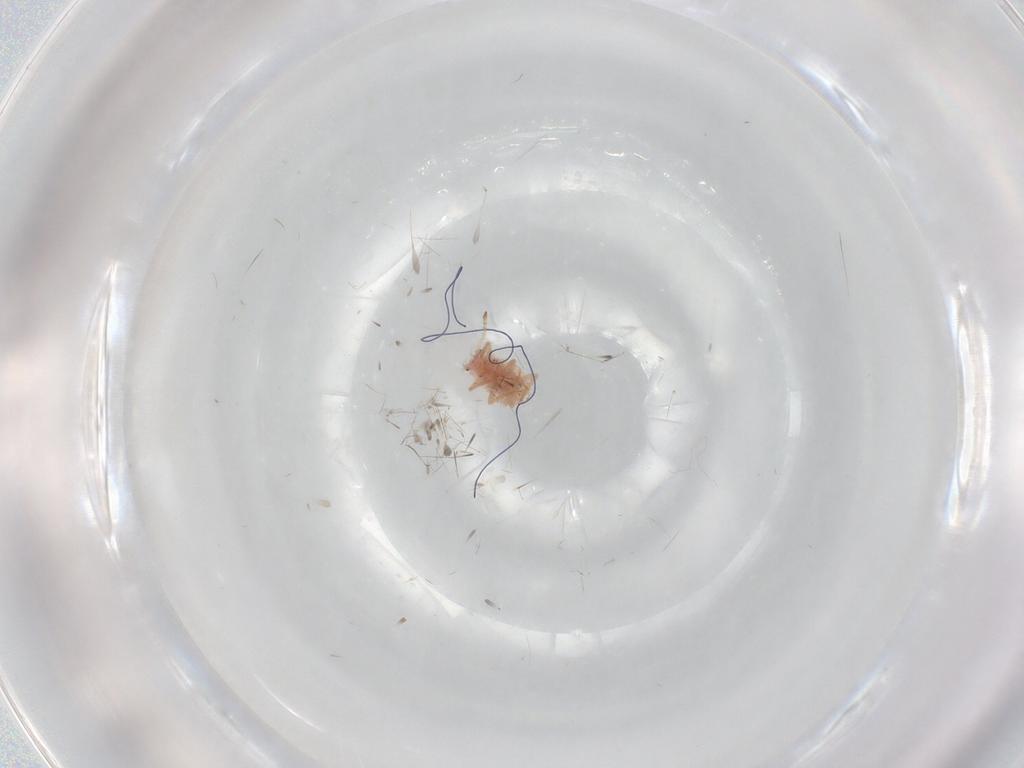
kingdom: Animalia
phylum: Arthropoda
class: Insecta
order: Hemiptera
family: Coccoidea_incertae_sedis
